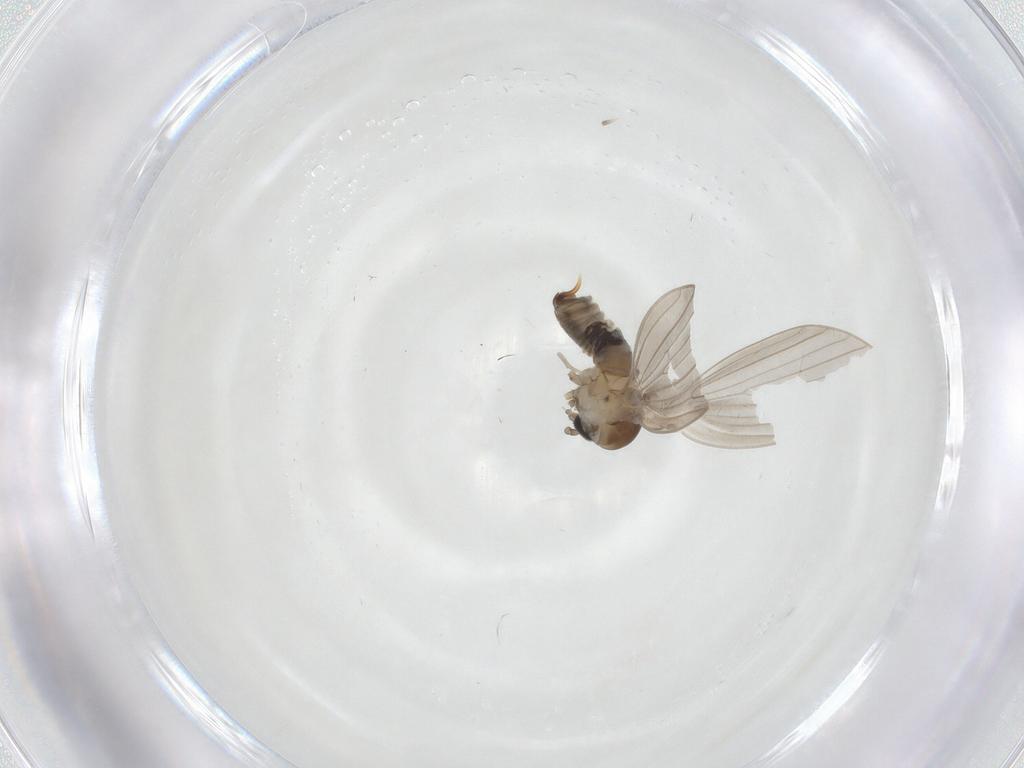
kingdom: Animalia
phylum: Arthropoda
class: Insecta
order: Diptera
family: Psychodidae
